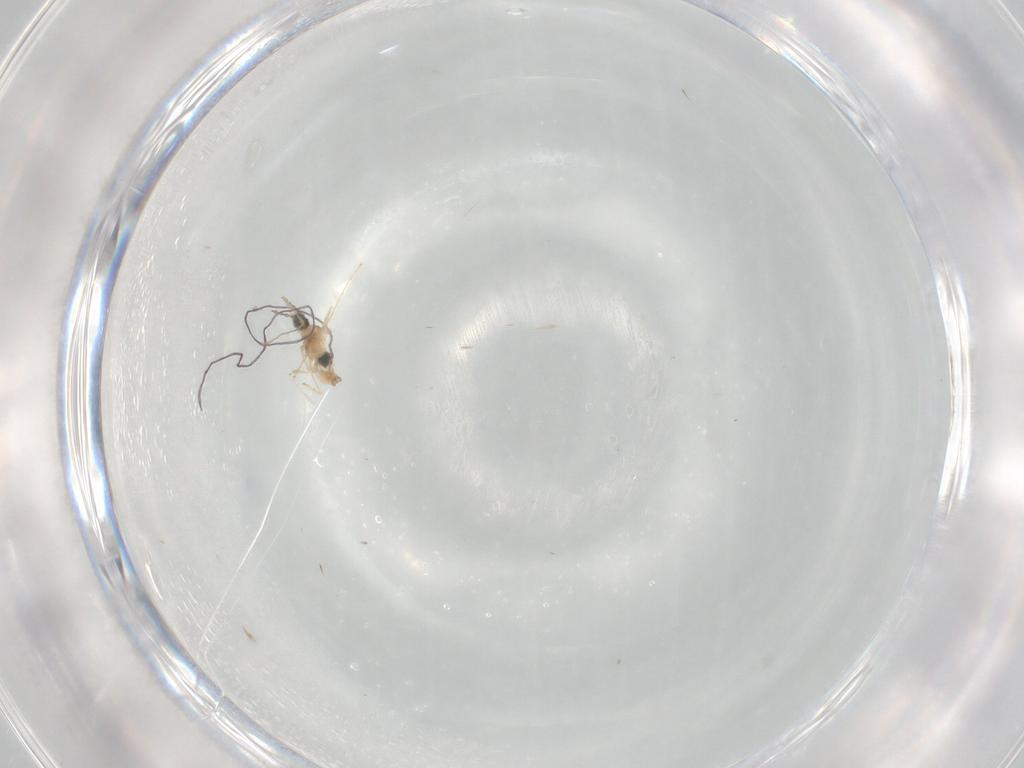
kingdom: Animalia
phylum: Arthropoda
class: Insecta
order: Diptera
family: Cecidomyiidae
